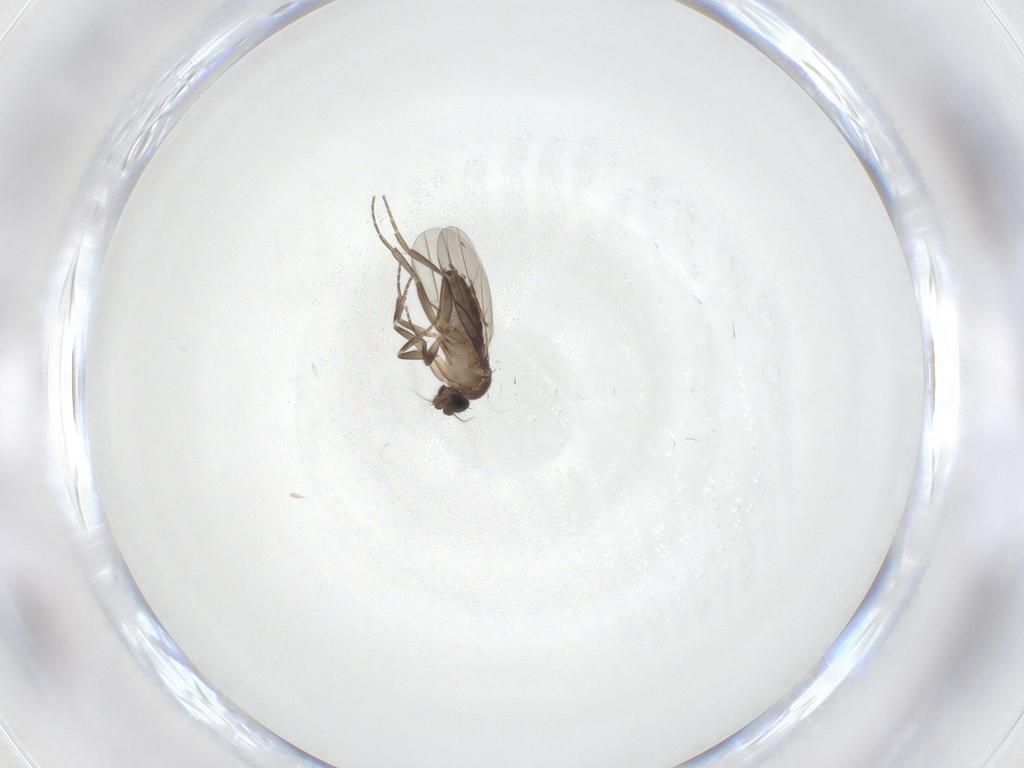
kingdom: Animalia
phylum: Arthropoda
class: Insecta
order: Diptera
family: Phoridae
